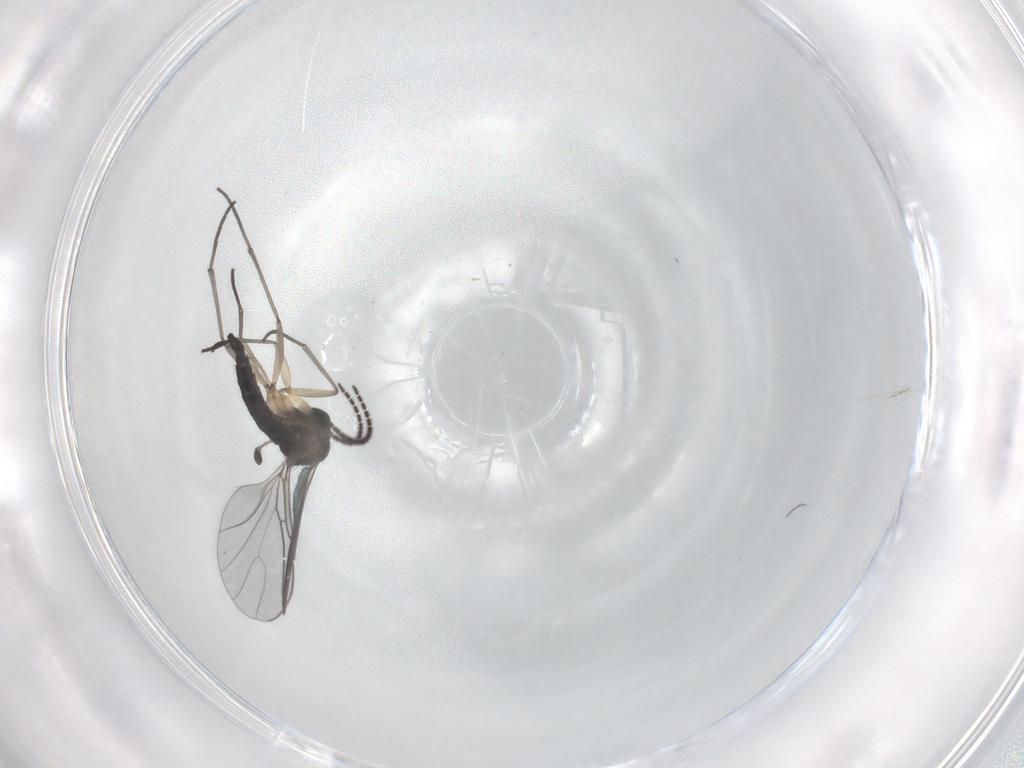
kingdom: Animalia
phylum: Arthropoda
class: Insecta
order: Diptera
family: Sciaridae
